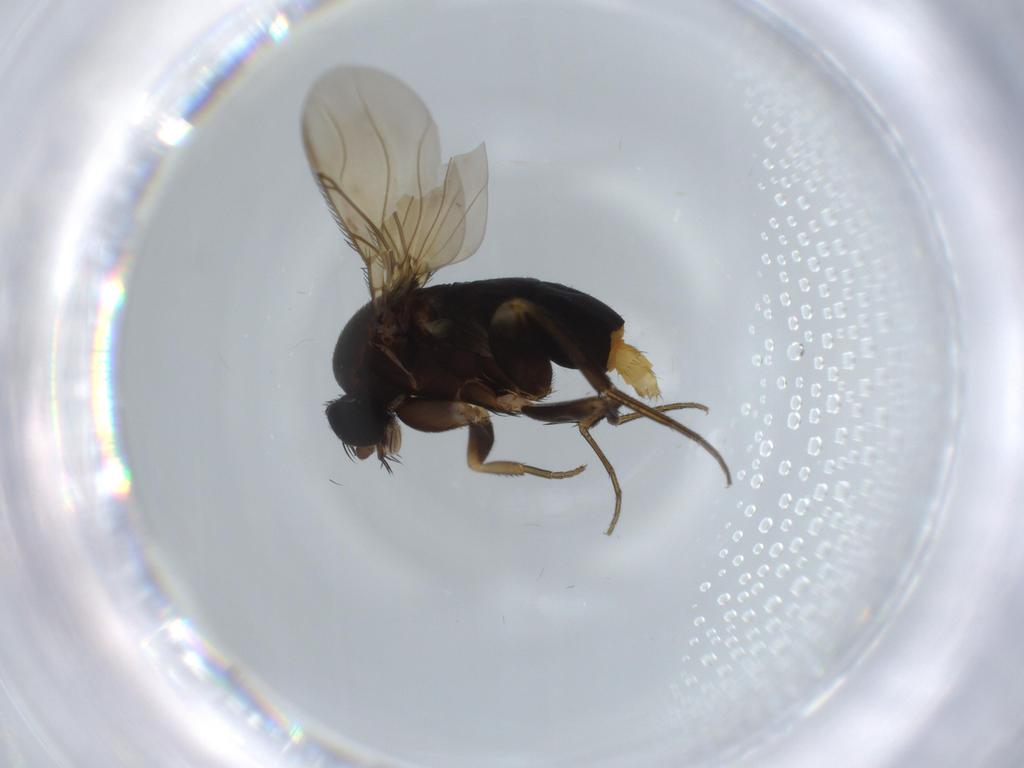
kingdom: Animalia
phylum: Arthropoda
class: Insecta
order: Diptera
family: Phoridae
